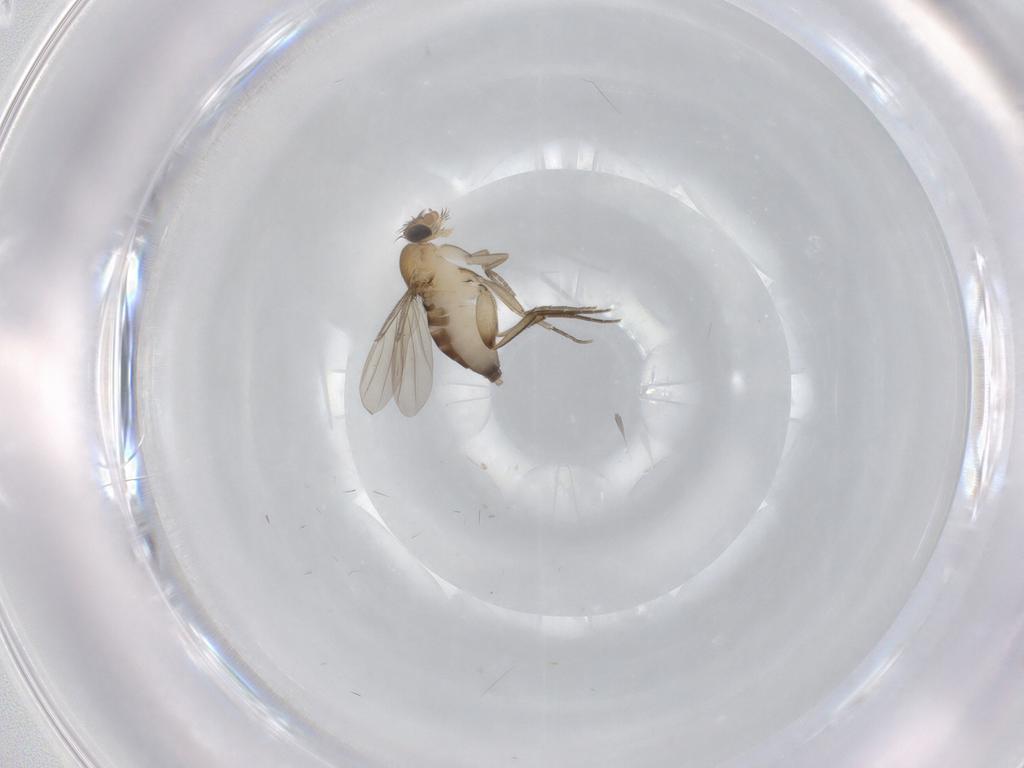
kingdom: Animalia
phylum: Arthropoda
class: Insecta
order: Diptera
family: Phoridae
